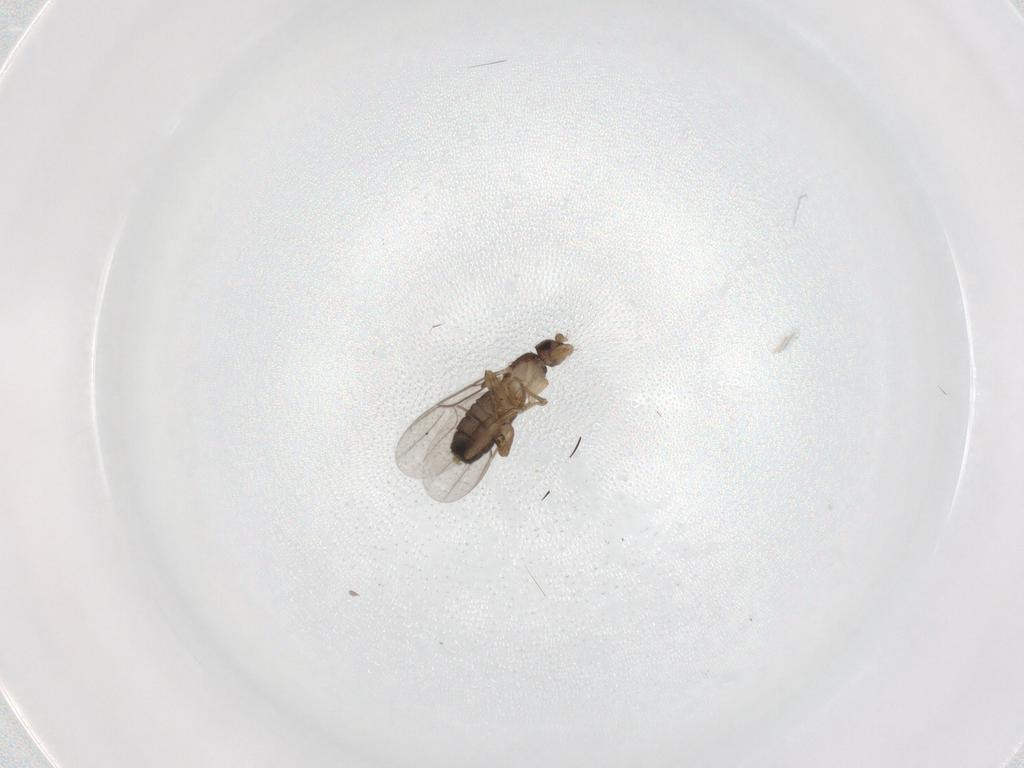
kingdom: Animalia
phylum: Arthropoda
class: Insecta
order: Diptera
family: Phoridae
